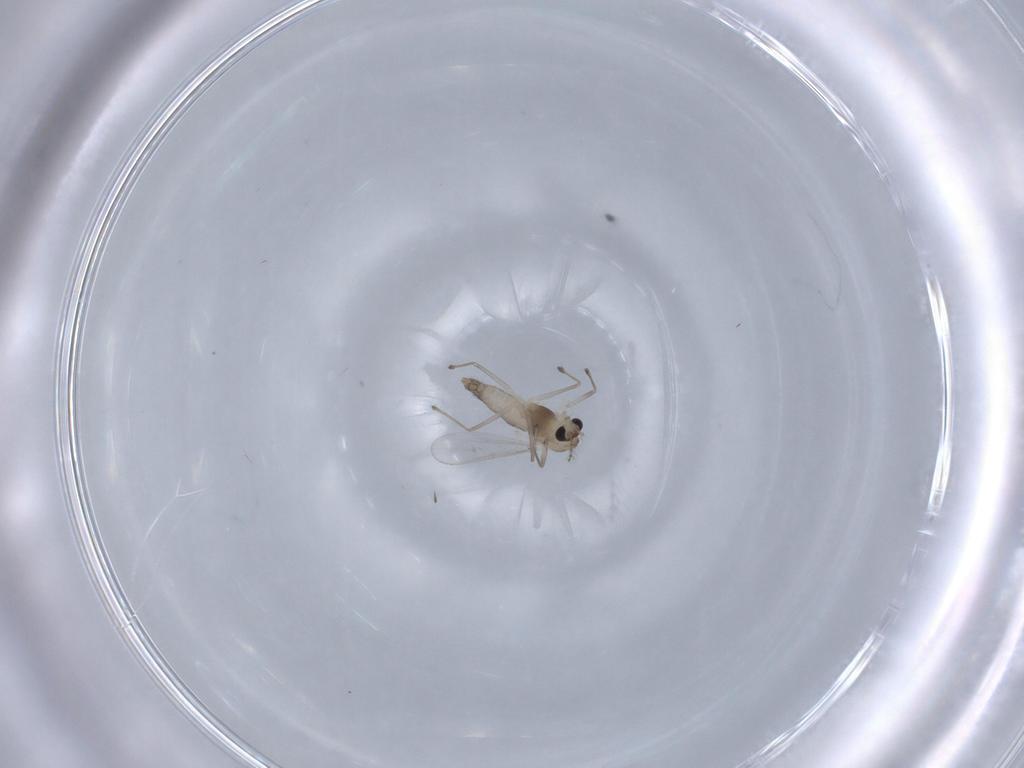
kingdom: Animalia
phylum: Arthropoda
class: Insecta
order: Diptera
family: Chironomidae
